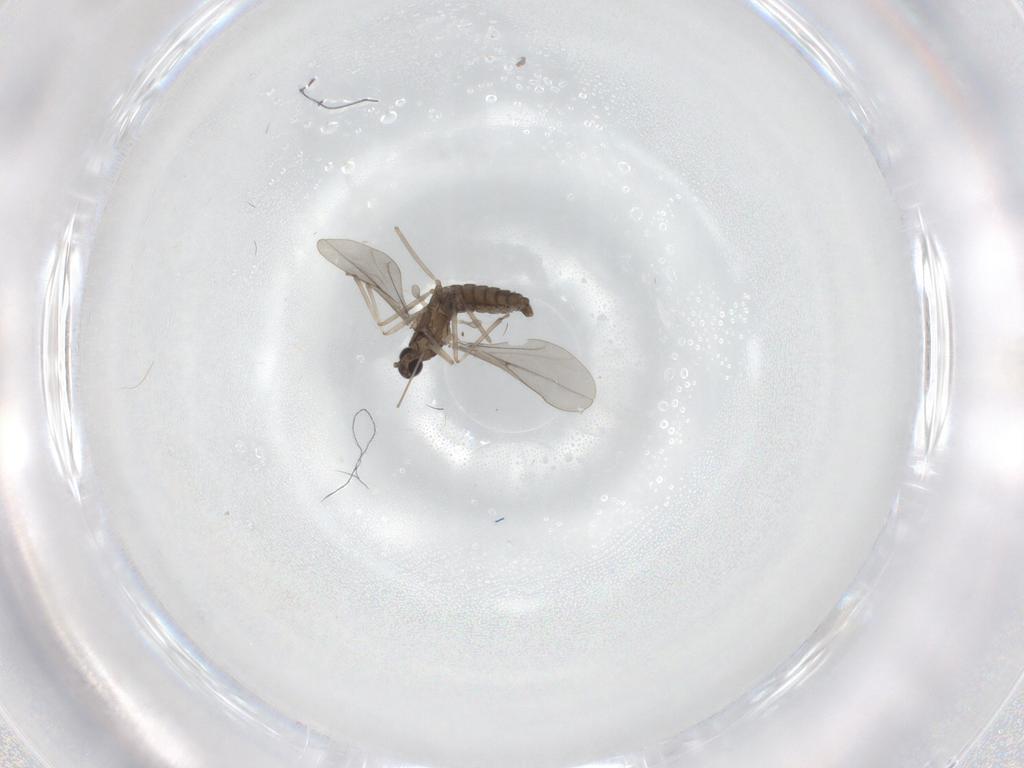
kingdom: Animalia
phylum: Arthropoda
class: Insecta
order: Diptera
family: Cecidomyiidae
